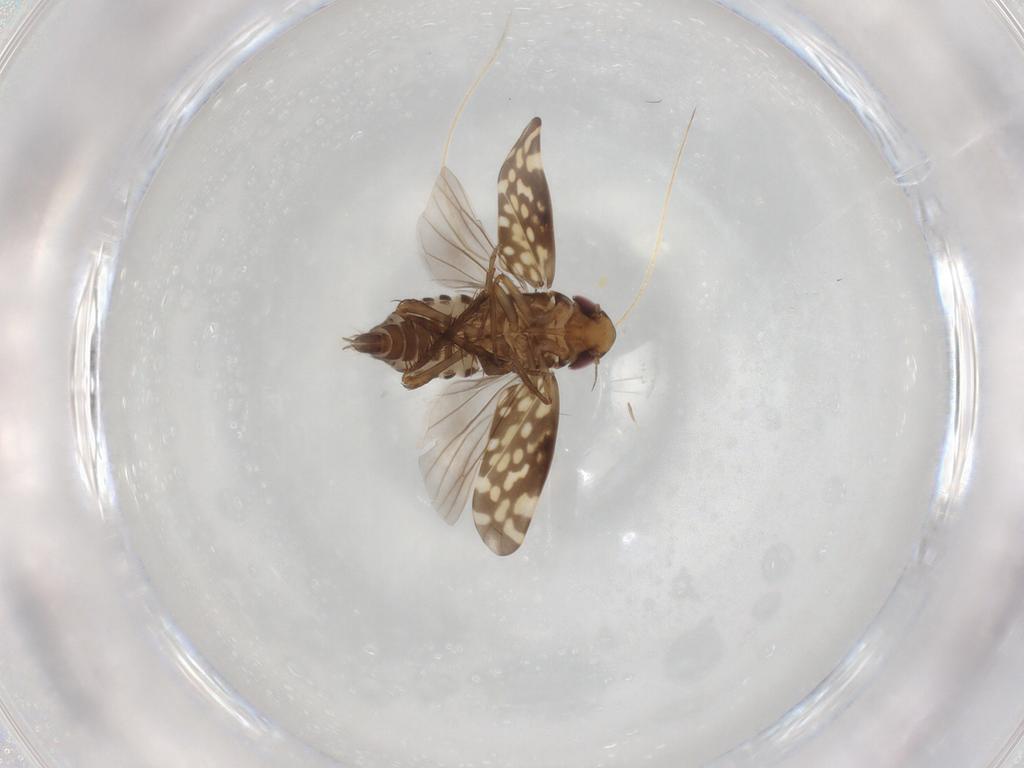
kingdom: Animalia
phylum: Arthropoda
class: Insecta
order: Hemiptera
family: Cicadellidae
